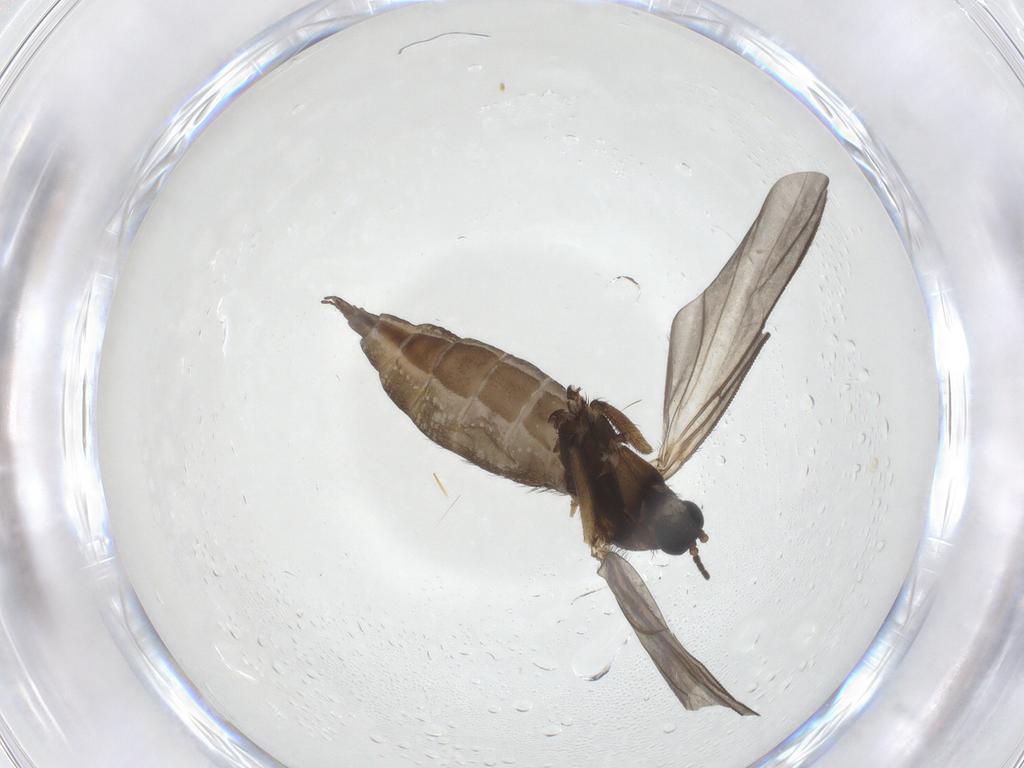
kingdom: Animalia
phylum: Arthropoda
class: Insecta
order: Diptera
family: Sciaridae
